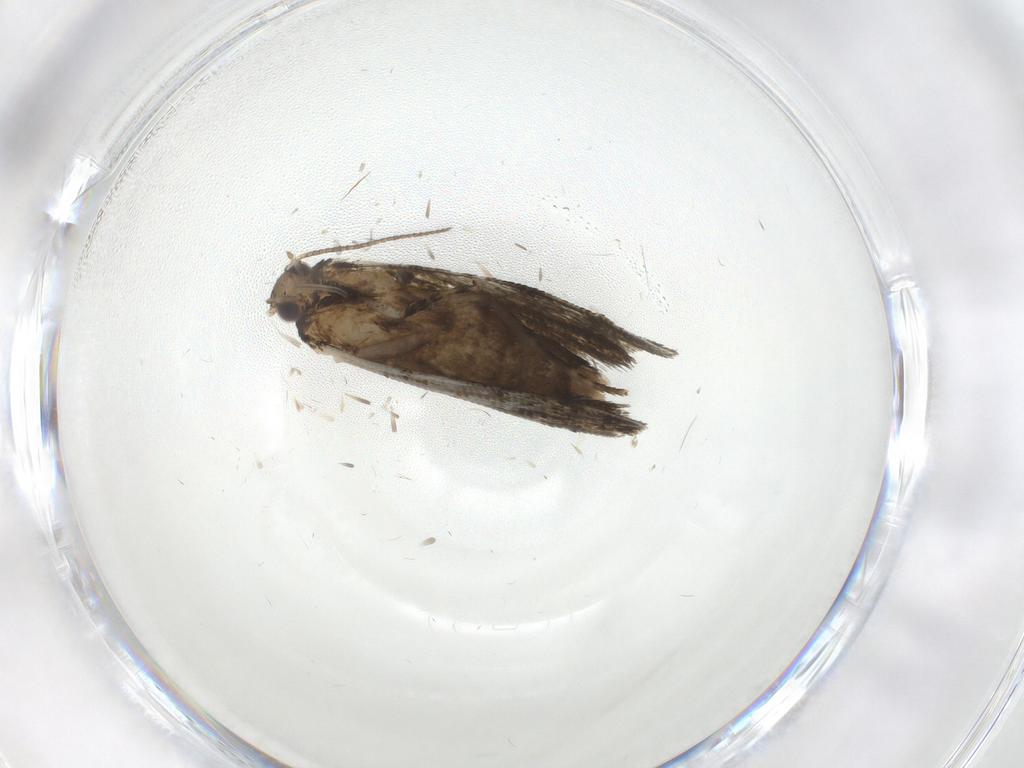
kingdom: Animalia
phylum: Arthropoda
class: Insecta
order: Lepidoptera
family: Tortricidae
